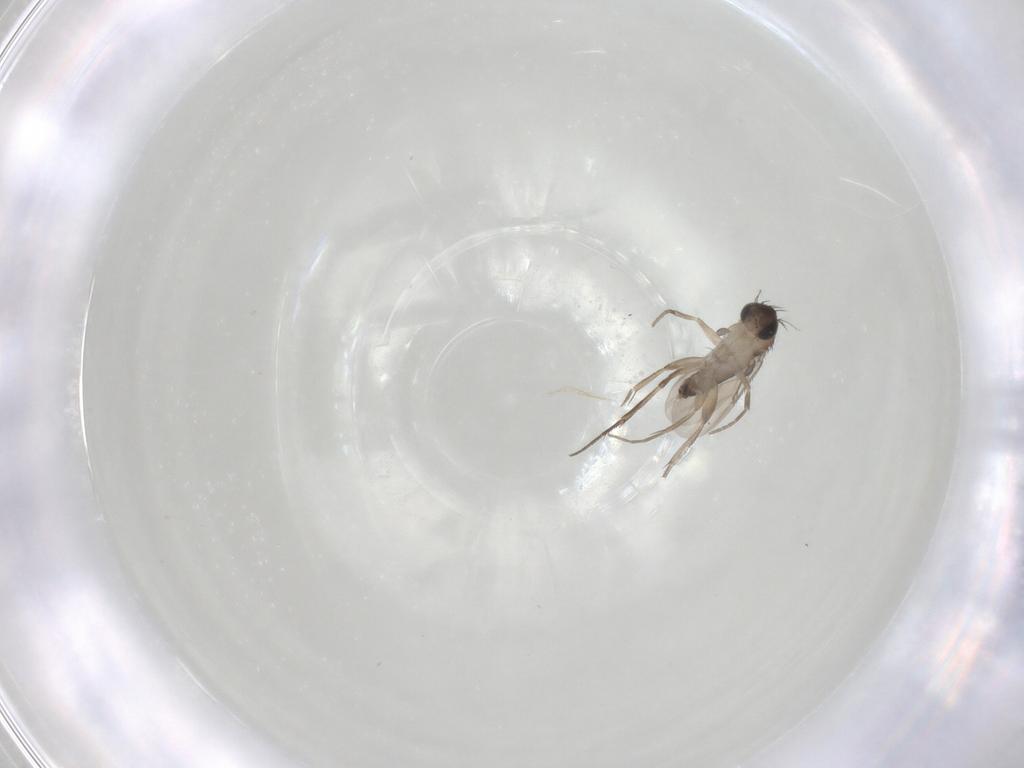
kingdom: Animalia
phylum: Arthropoda
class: Insecta
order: Diptera
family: Phoridae
